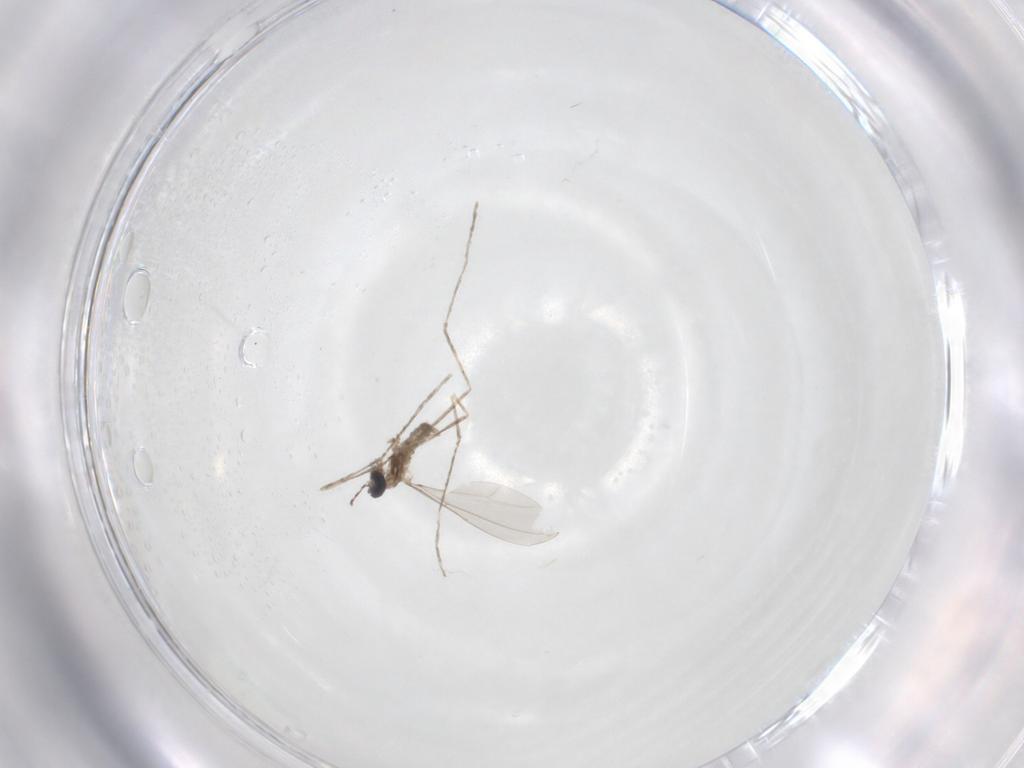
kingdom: Animalia
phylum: Arthropoda
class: Insecta
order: Diptera
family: Cecidomyiidae
